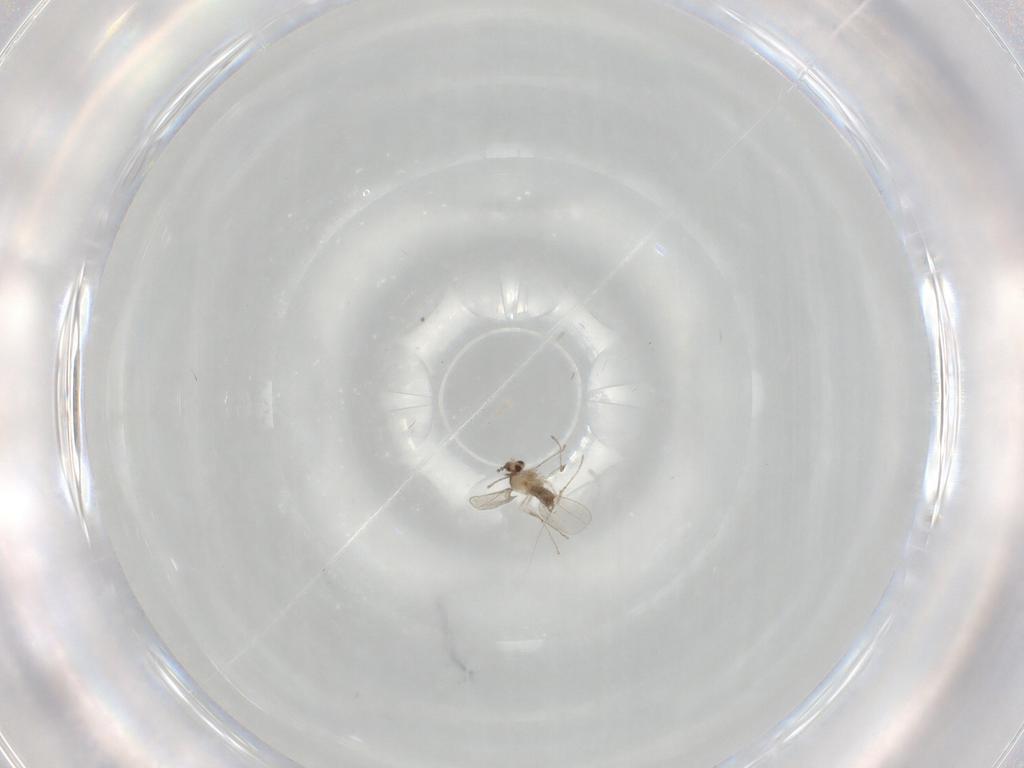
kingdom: Animalia
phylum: Arthropoda
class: Insecta
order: Diptera
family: Cecidomyiidae
